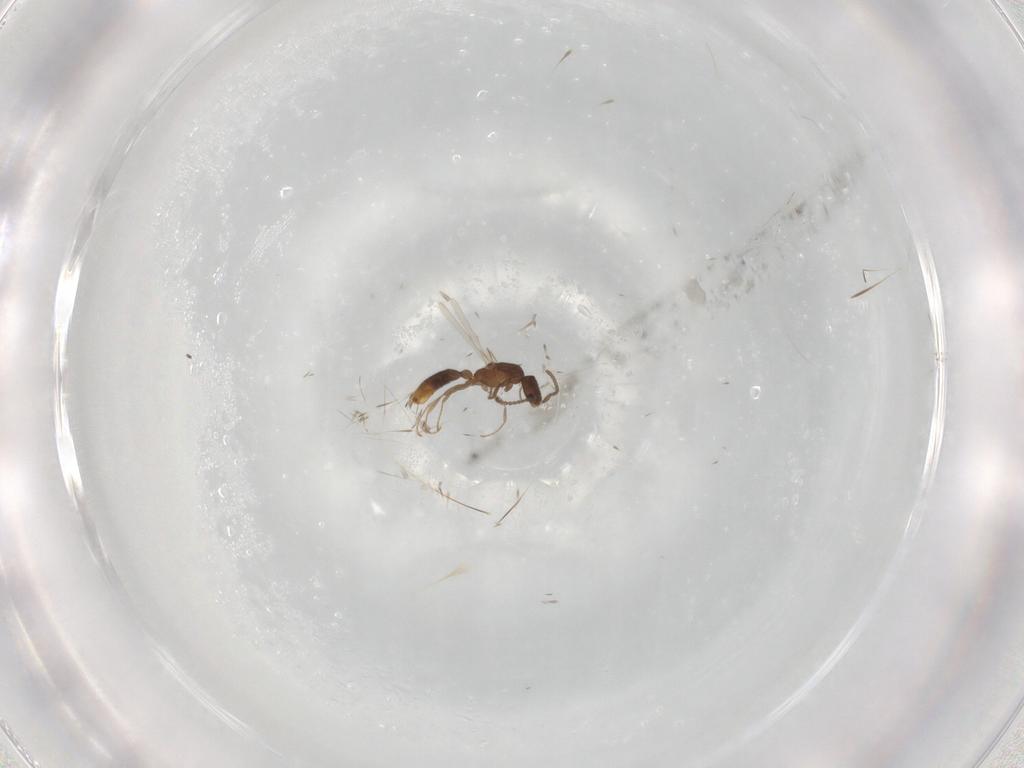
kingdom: Animalia
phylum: Arthropoda
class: Insecta
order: Hymenoptera
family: Formicidae
